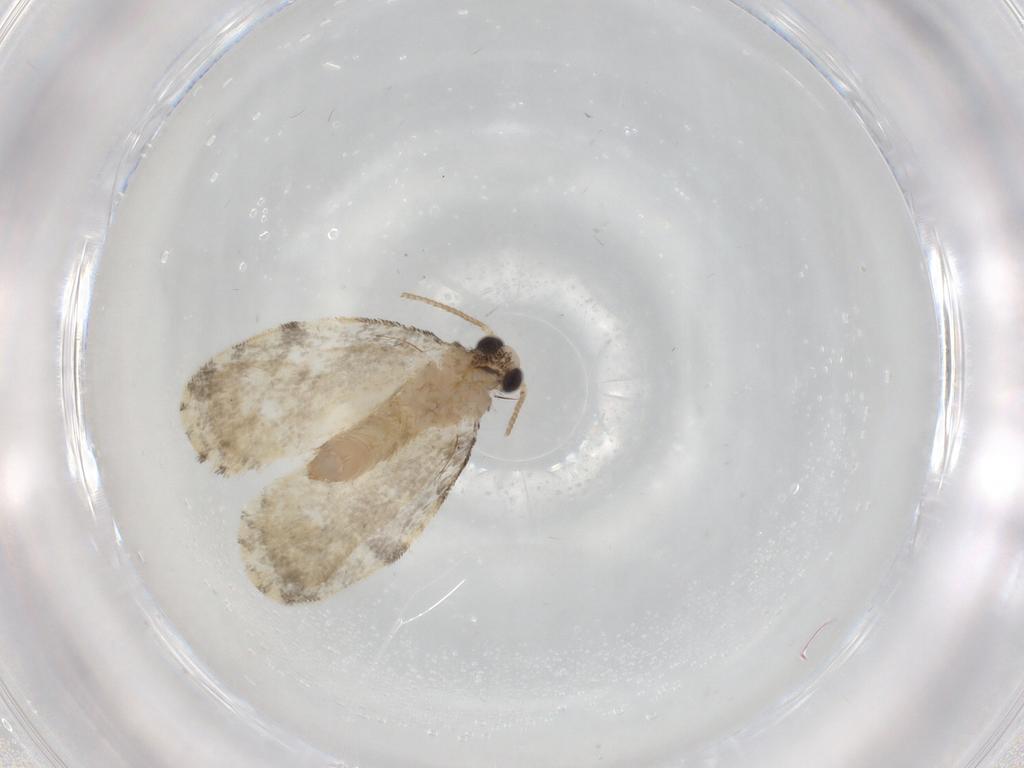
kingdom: Animalia
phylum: Arthropoda
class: Insecta
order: Lepidoptera
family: Psychidae
